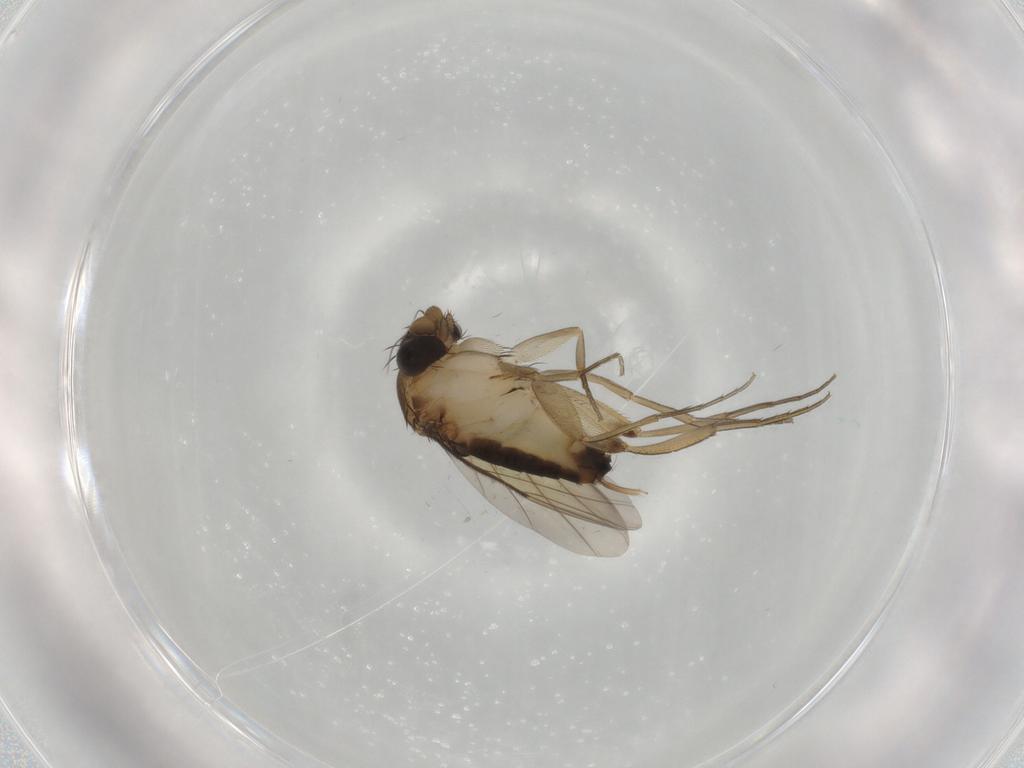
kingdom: Animalia
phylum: Arthropoda
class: Insecta
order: Diptera
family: Phoridae
